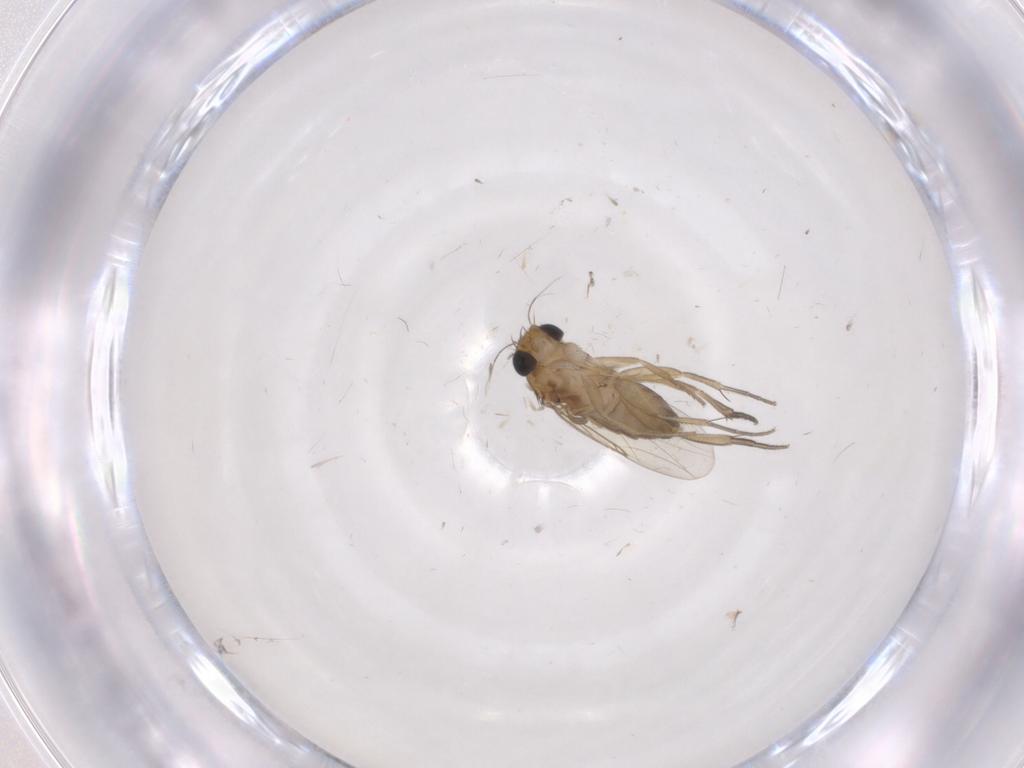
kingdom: Animalia
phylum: Arthropoda
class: Insecta
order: Diptera
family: Phoridae
